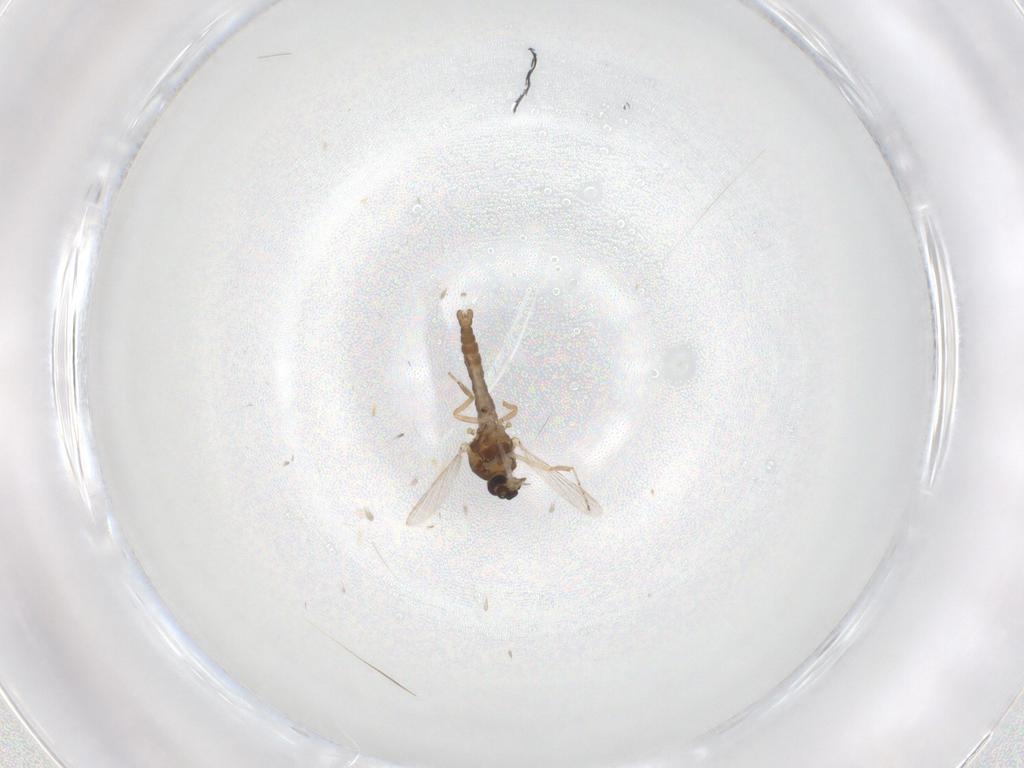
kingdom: Animalia
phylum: Arthropoda
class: Insecta
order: Diptera
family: Ceratopogonidae
